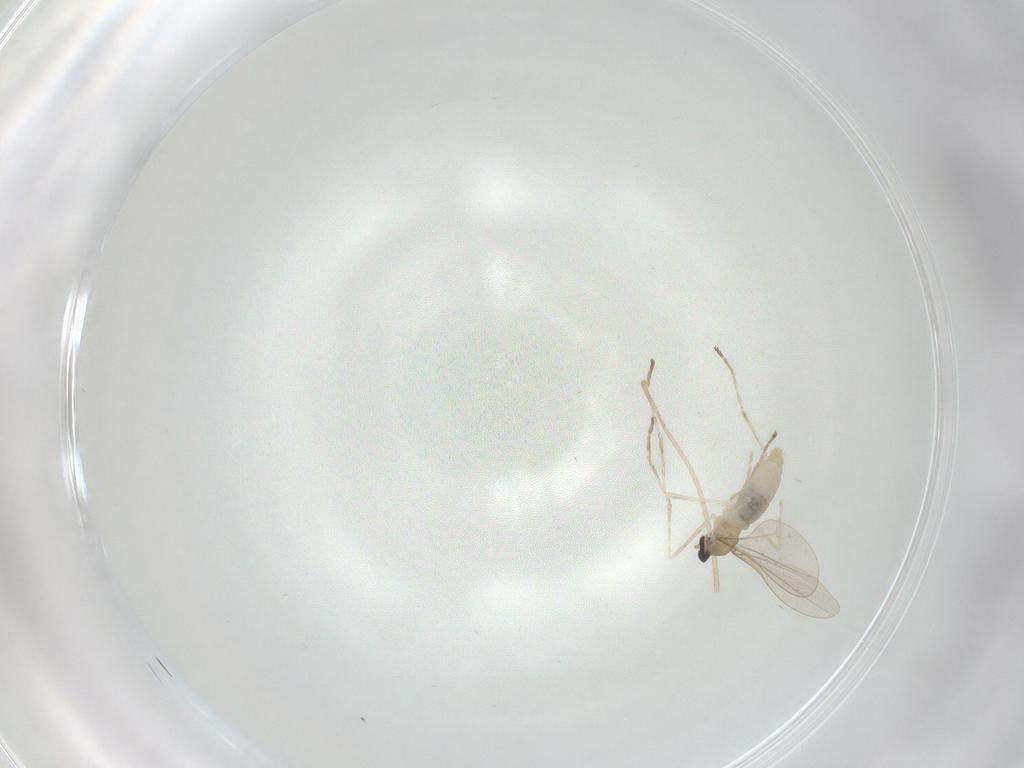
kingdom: Animalia
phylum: Arthropoda
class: Insecta
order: Diptera
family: Cecidomyiidae
